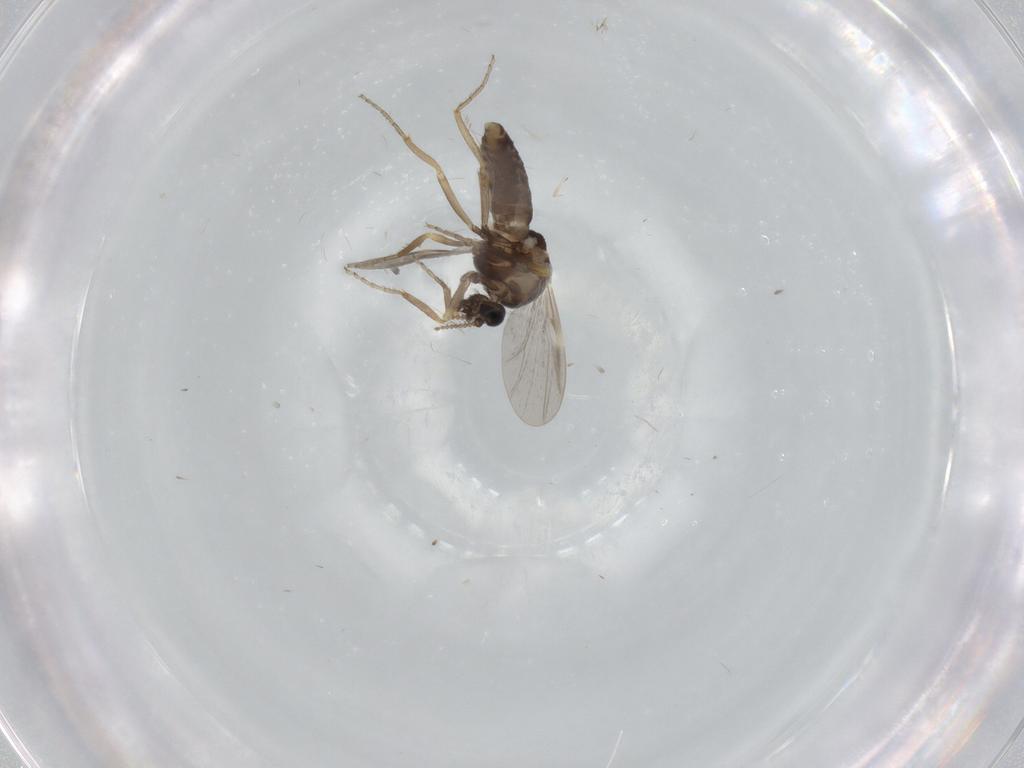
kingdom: Animalia
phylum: Arthropoda
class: Insecta
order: Diptera
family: Ceratopogonidae
